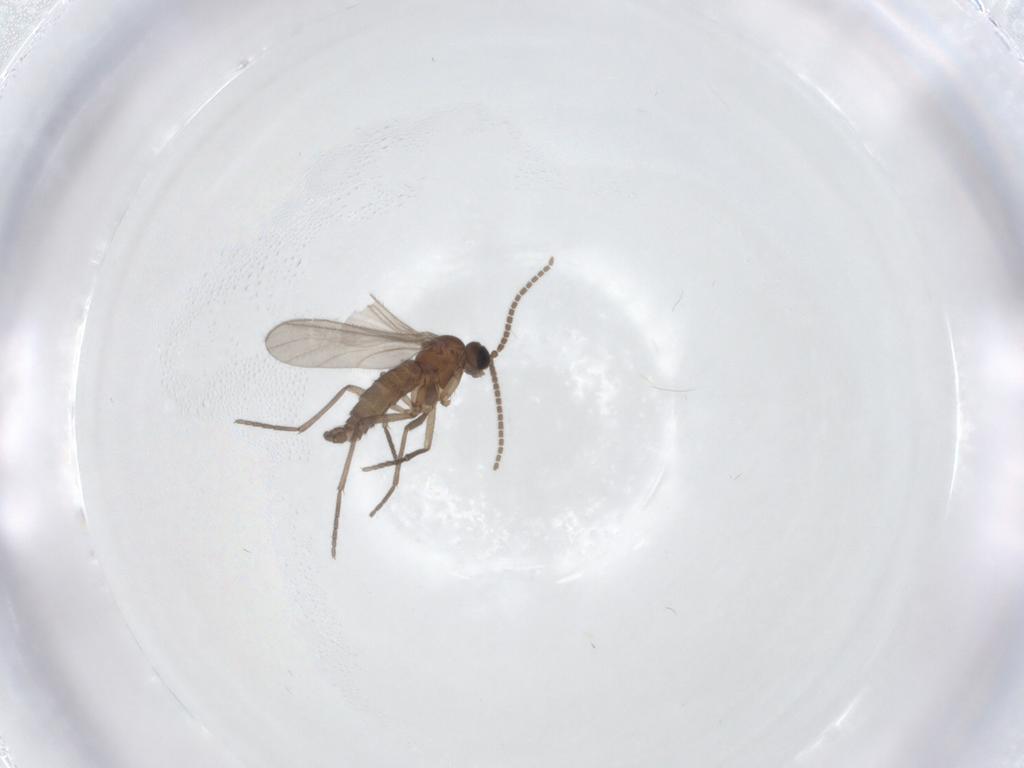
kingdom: Animalia
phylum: Arthropoda
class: Insecta
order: Diptera
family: Sciaridae
